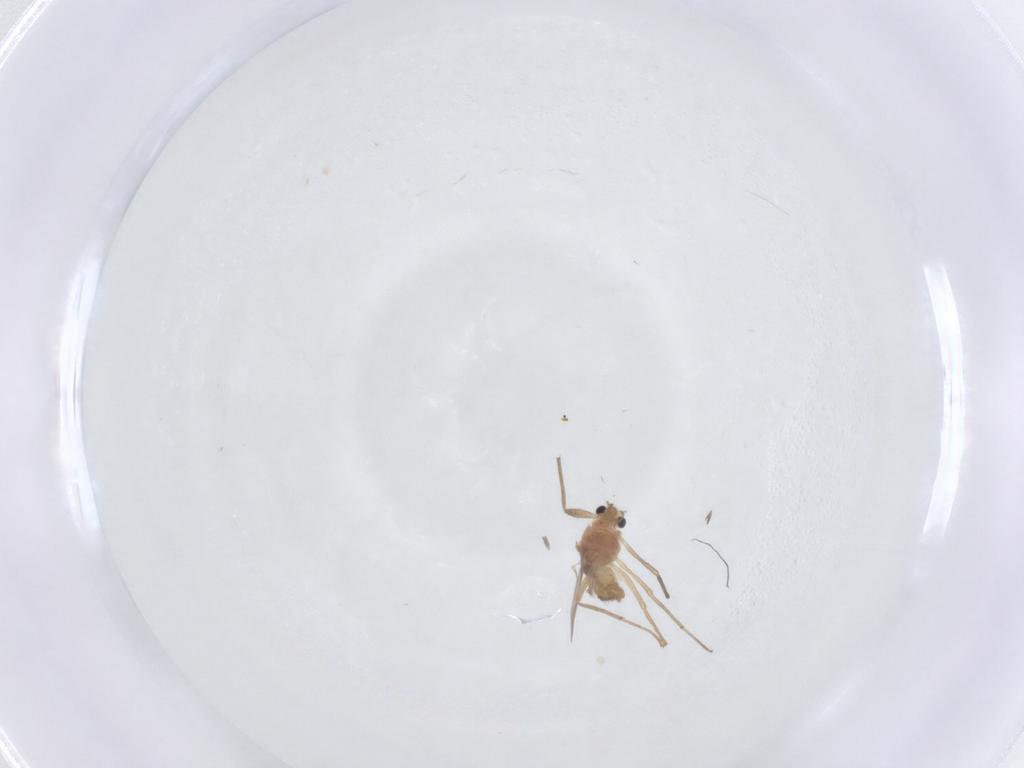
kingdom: Animalia
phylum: Arthropoda
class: Insecta
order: Diptera
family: Chironomidae
